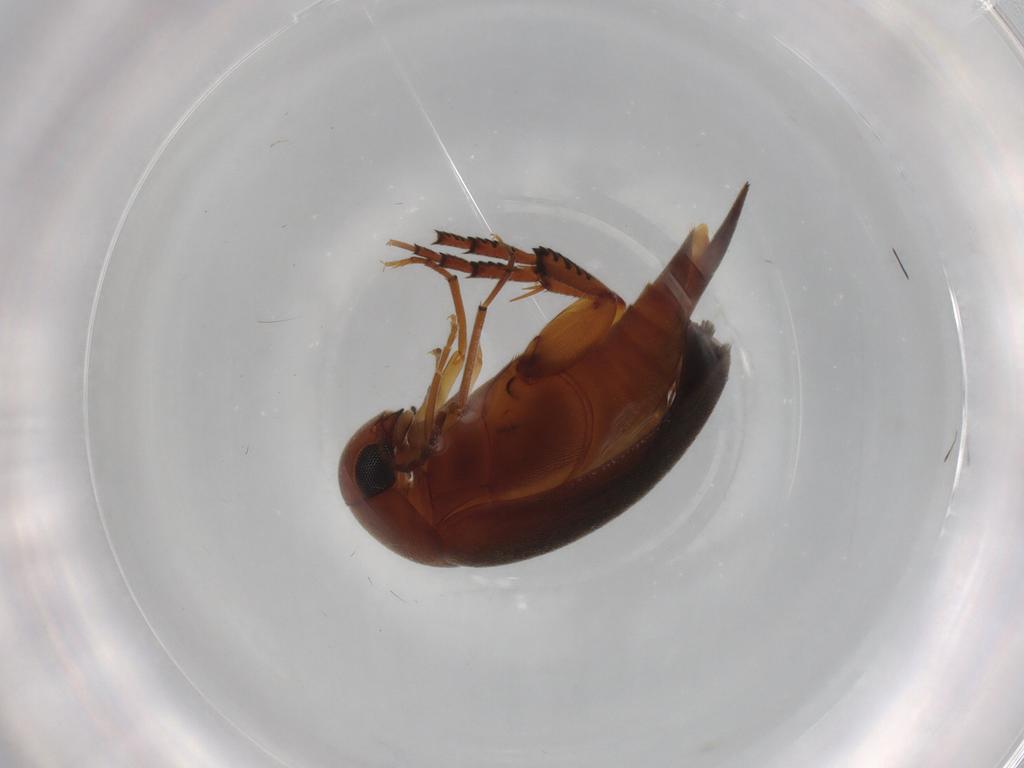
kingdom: Animalia
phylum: Arthropoda
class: Insecta
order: Coleoptera
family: Mordellidae
